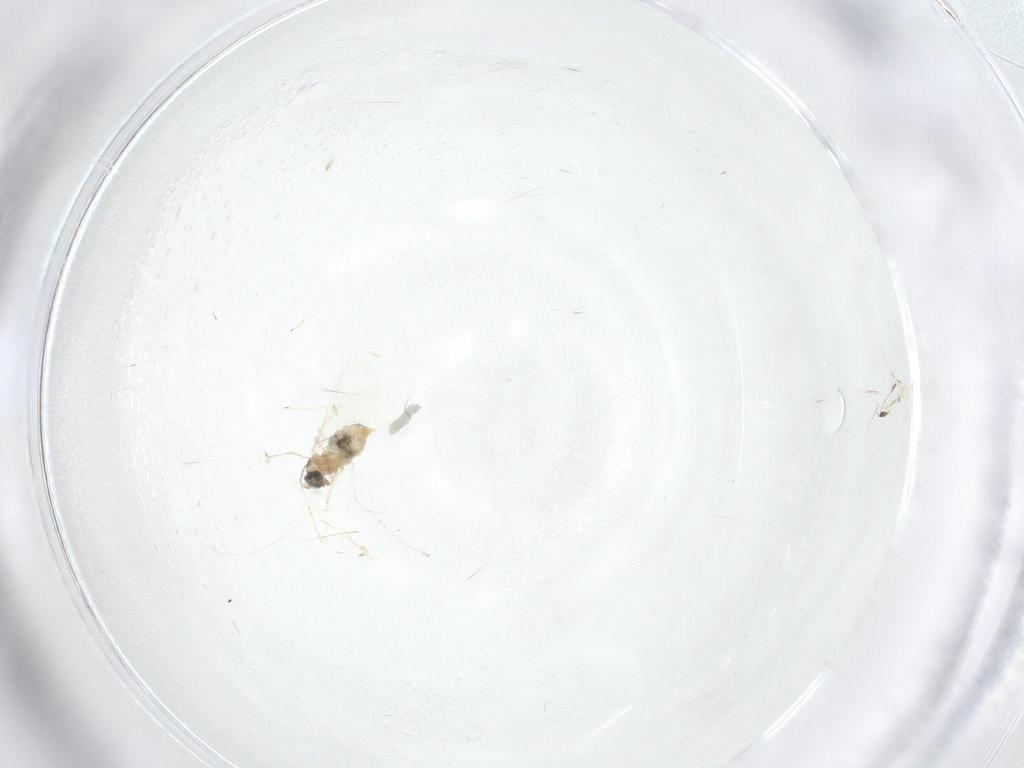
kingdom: Animalia
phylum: Arthropoda
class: Insecta
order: Diptera
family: Cecidomyiidae
